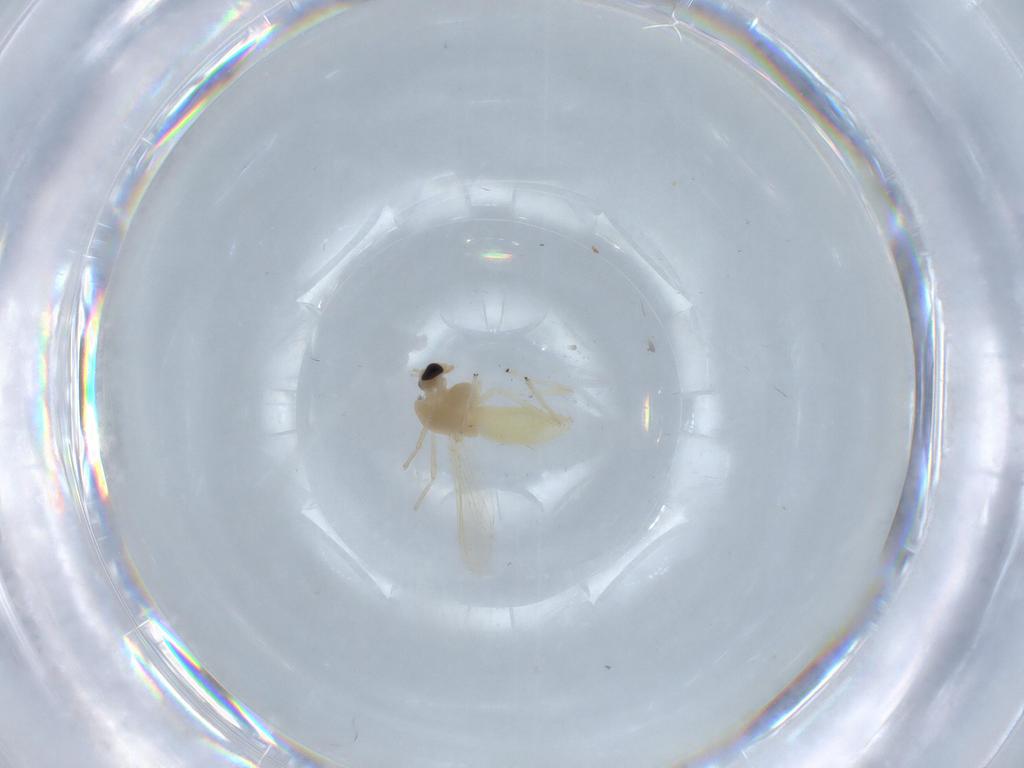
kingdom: Animalia
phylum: Arthropoda
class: Insecta
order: Diptera
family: Chironomidae
